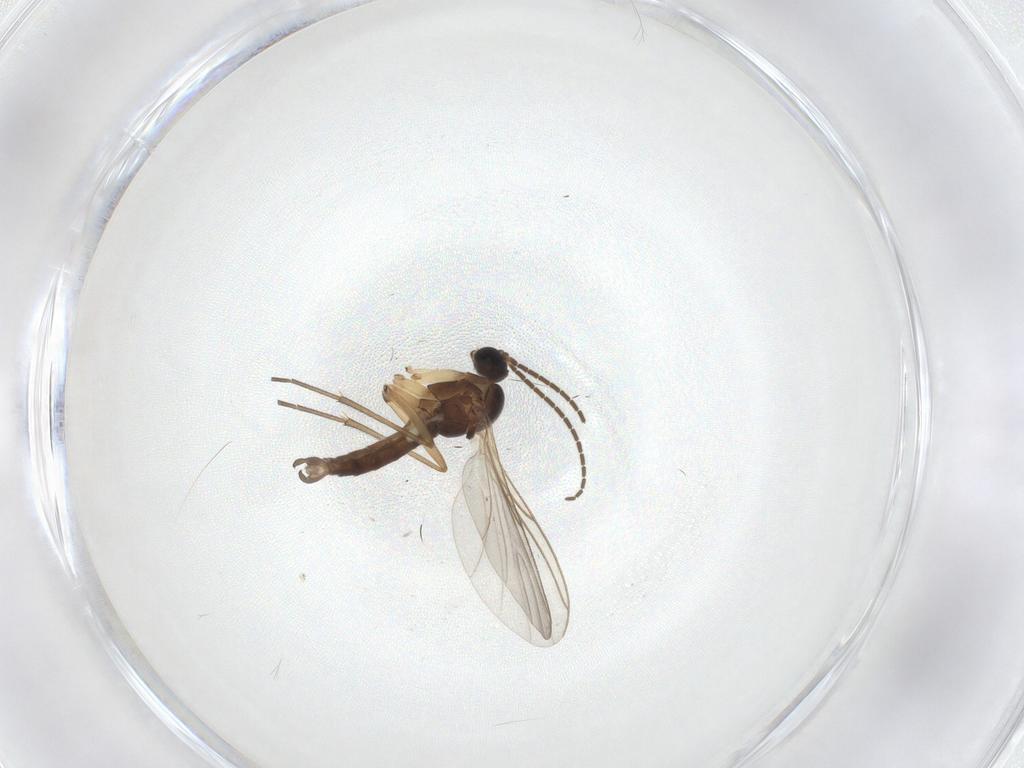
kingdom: Animalia
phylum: Arthropoda
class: Insecta
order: Diptera
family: Sciaridae
